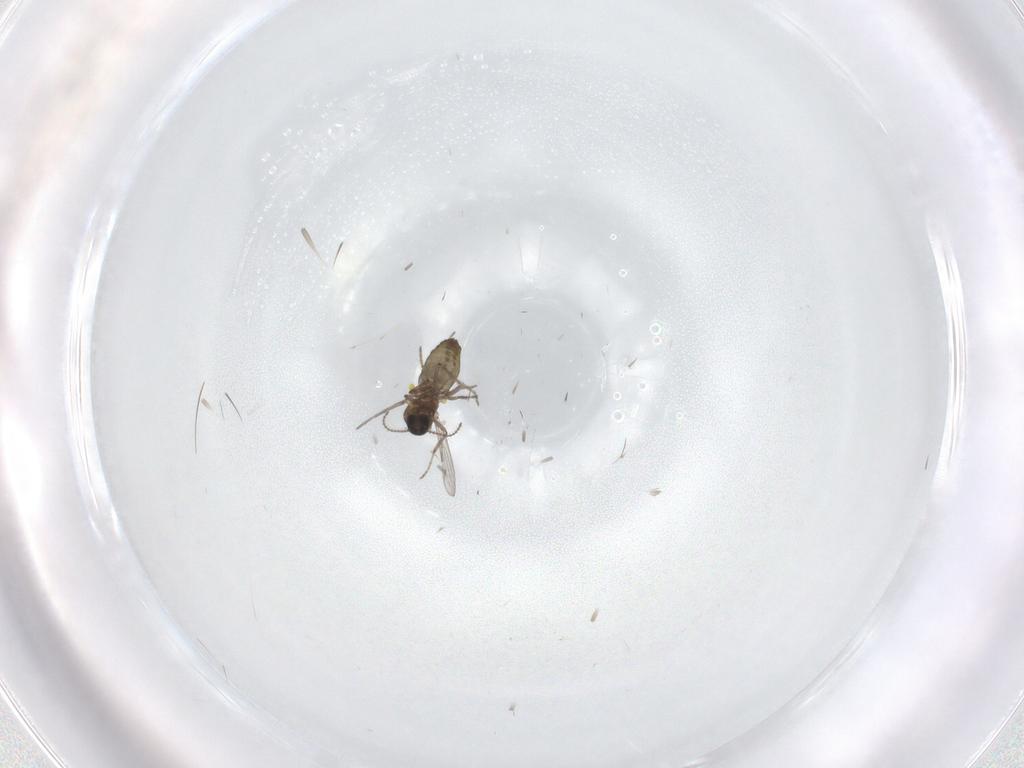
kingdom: Animalia
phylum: Arthropoda
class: Insecta
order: Diptera
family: Ceratopogonidae
